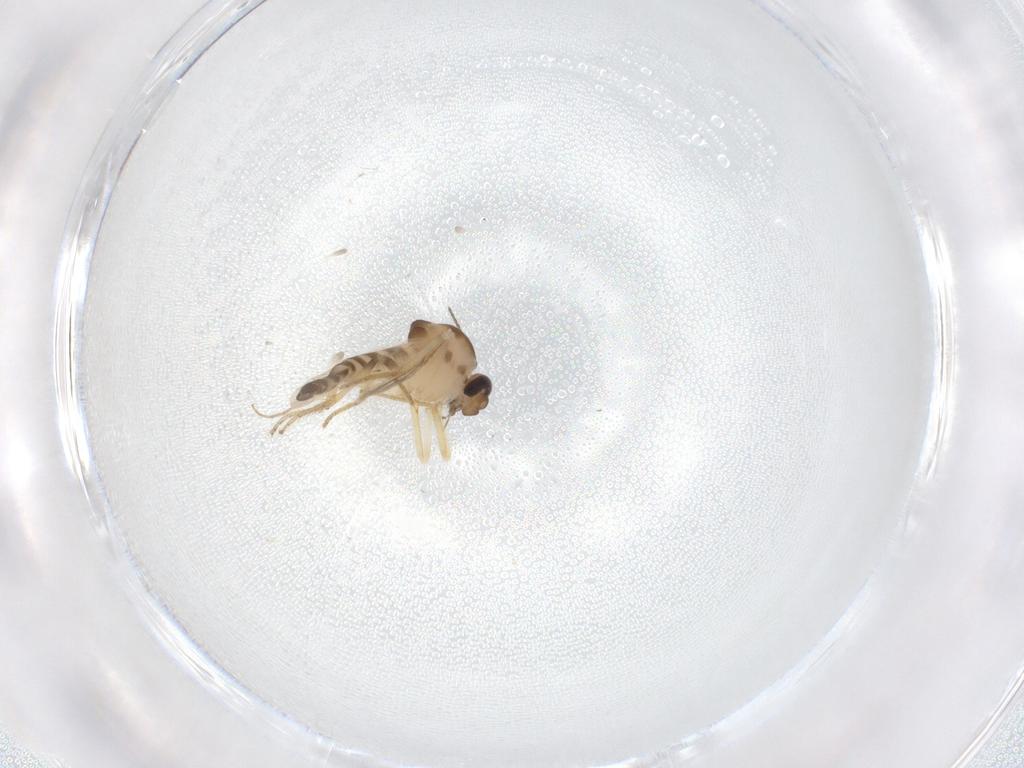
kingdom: Animalia
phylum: Arthropoda
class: Insecta
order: Diptera
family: Ceratopogonidae
